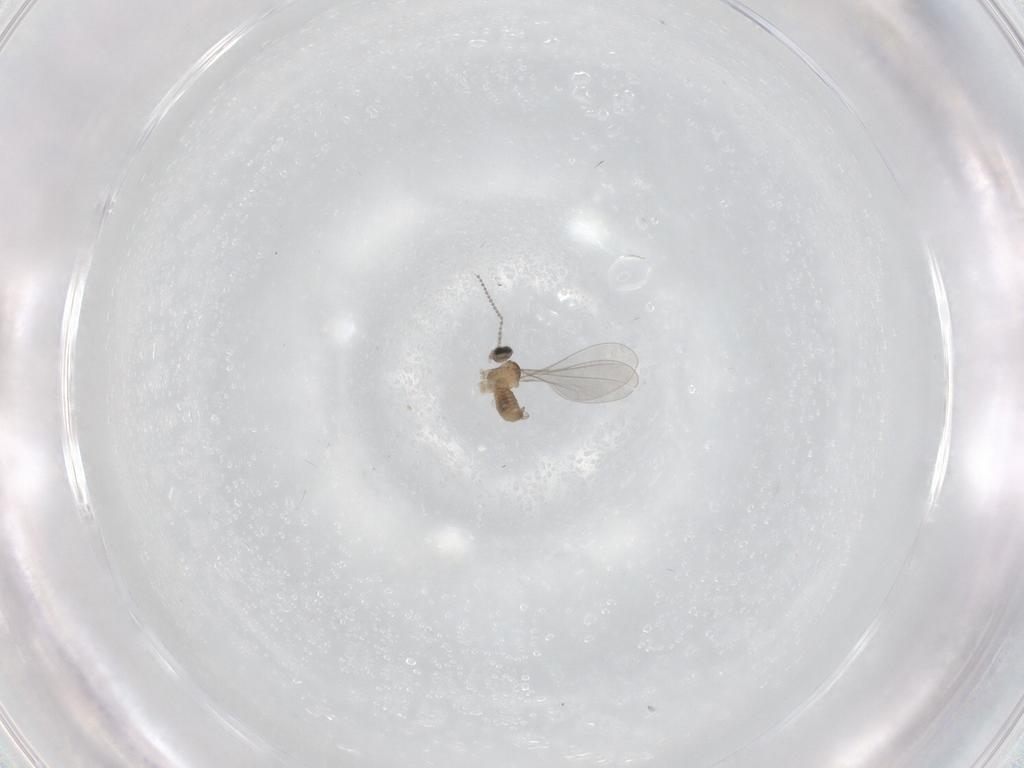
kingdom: Animalia
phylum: Arthropoda
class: Insecta
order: Diptera
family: Cecidomyiidae
